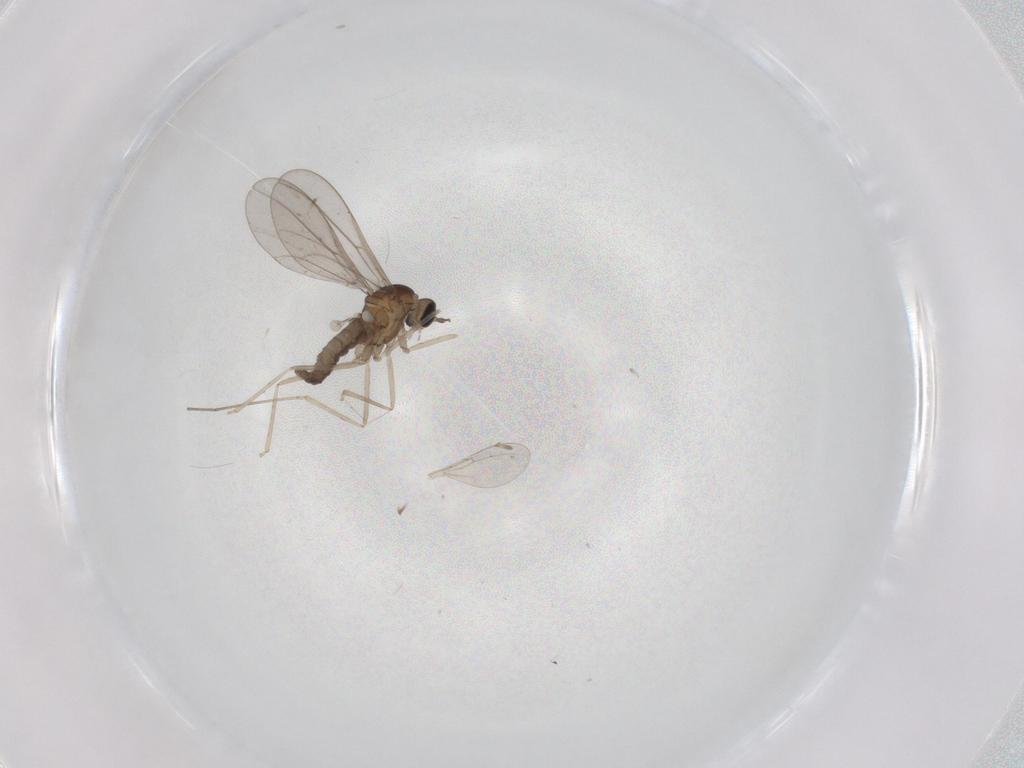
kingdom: Animalia
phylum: Arthropoda
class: Insecta
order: Diptera
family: Cecidomyiidae
